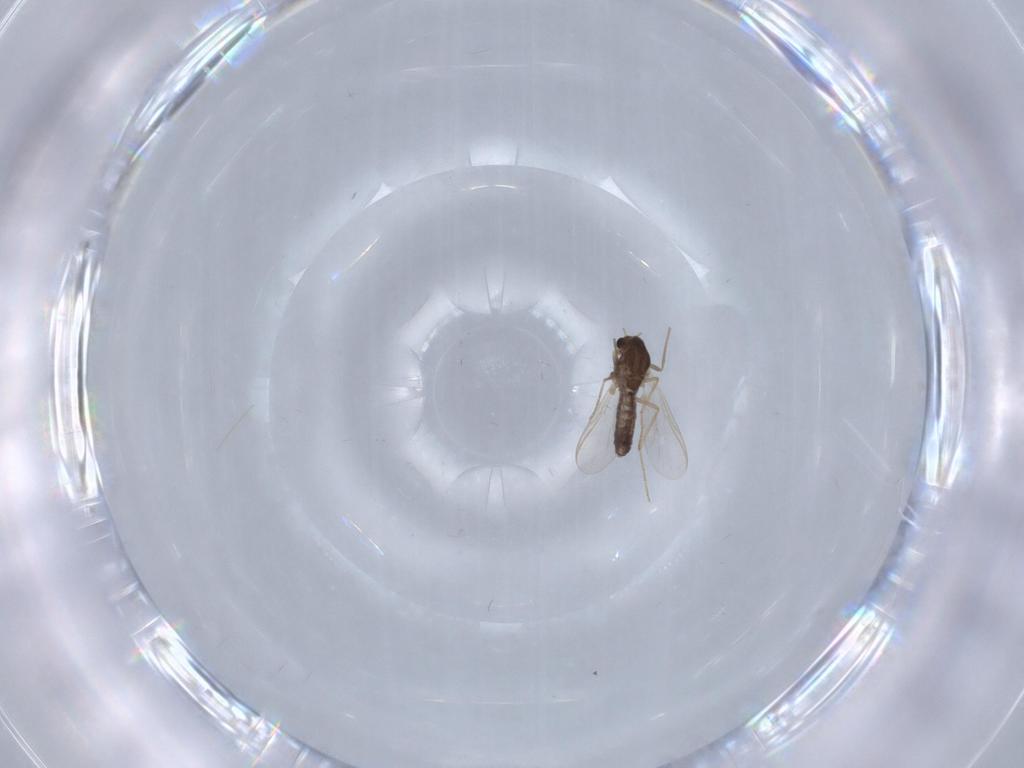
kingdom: Animalia
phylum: Arthropoda
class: Insecta
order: Diptera
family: Chironomidae
